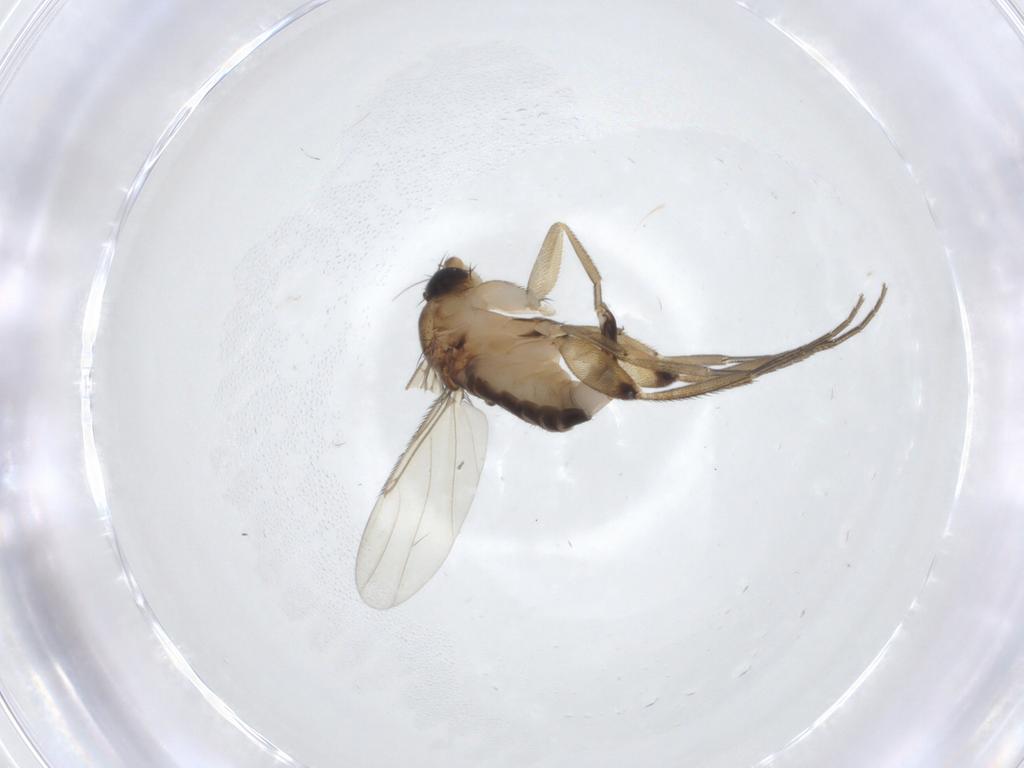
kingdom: Animalia
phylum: Arthropoda
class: Insecta
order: Diptera
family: Phoridae
